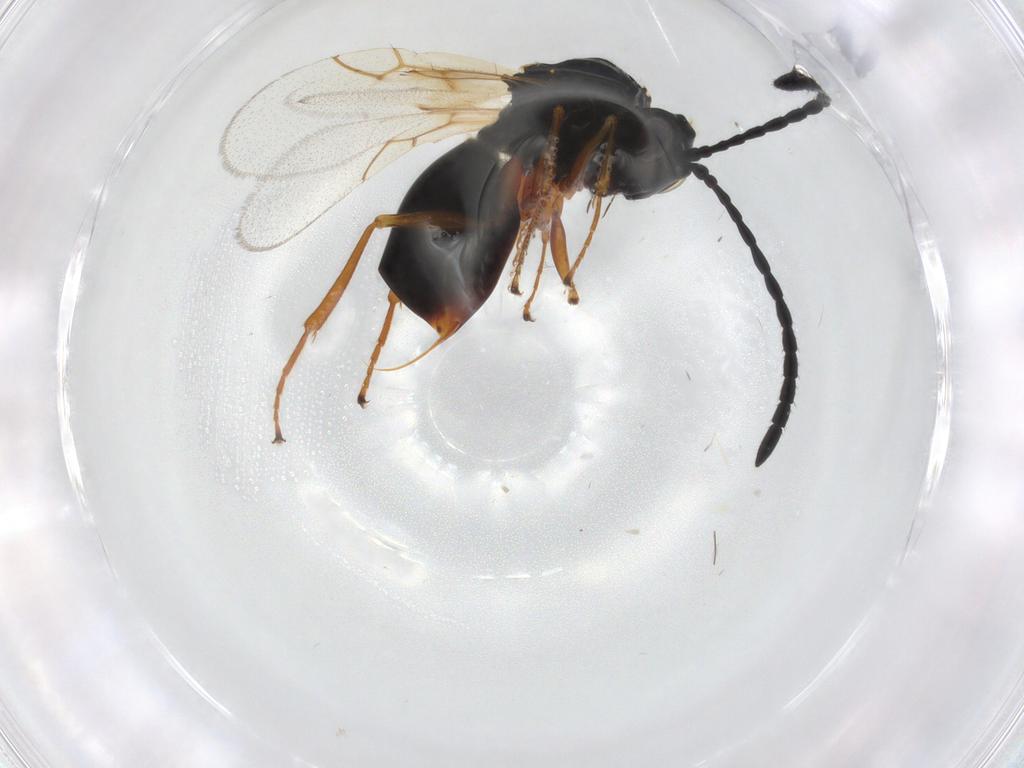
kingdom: Animalia
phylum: Arthropoda
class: Insecta
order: Hymenoptera
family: Figitidae
